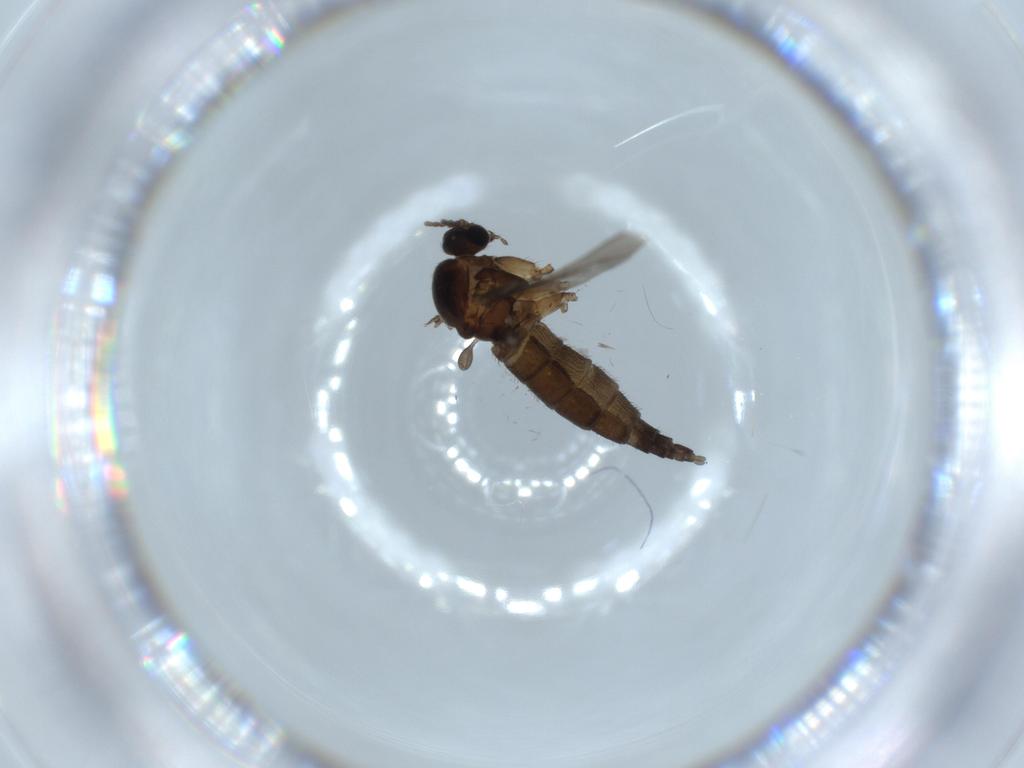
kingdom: Animalia
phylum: Arthropoda
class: Insecta
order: Diptera
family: Sciaridae
